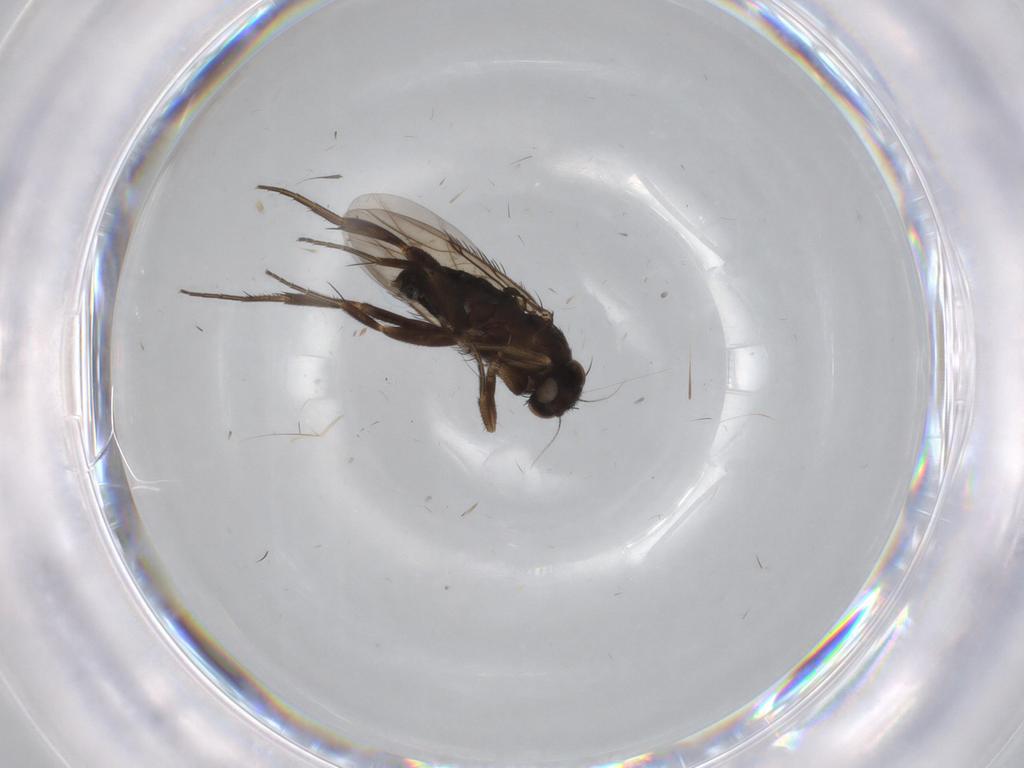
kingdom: Animalia
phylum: Arthropoda
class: Insecta
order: Diptera
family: Phoridae
